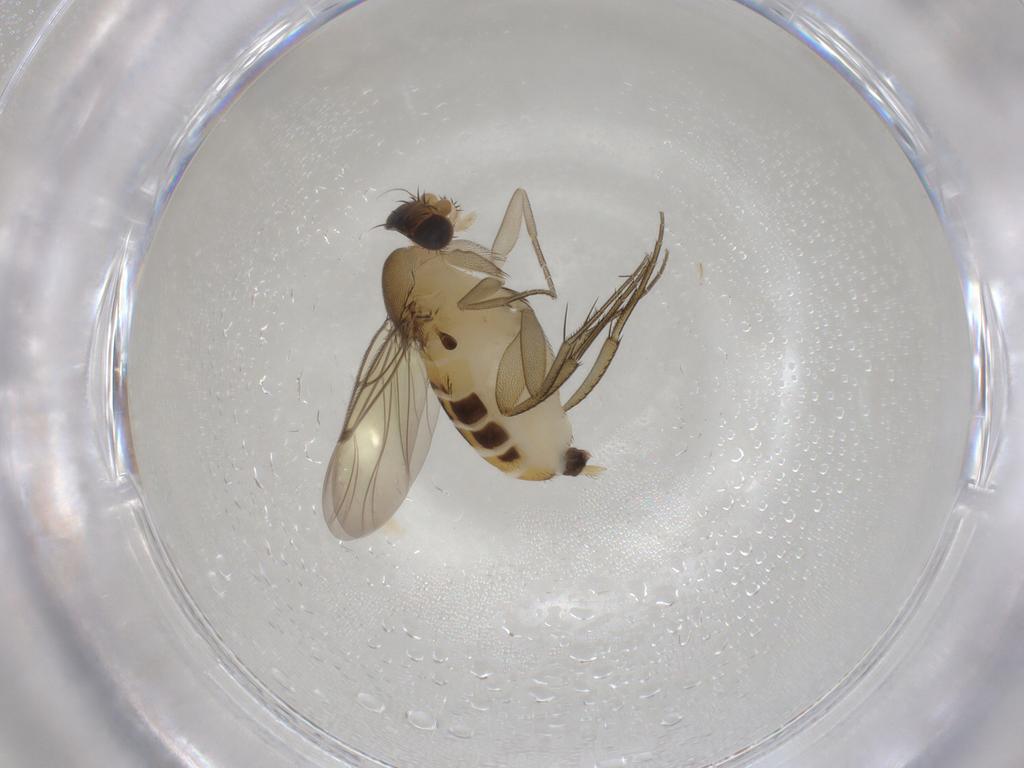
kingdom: Animalia
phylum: Arthropoda
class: Insecta
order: Diptera
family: Phoridae
